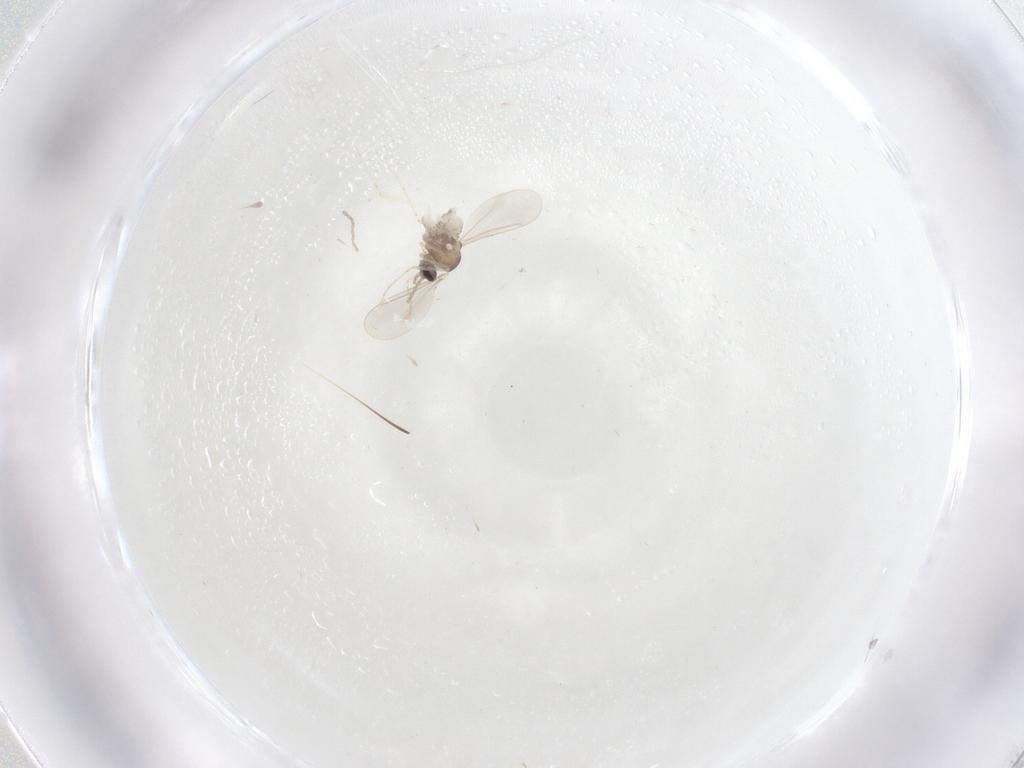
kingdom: Animalia
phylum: Arthropoda
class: Insecta
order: Diptera
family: Cecidomyiidae
